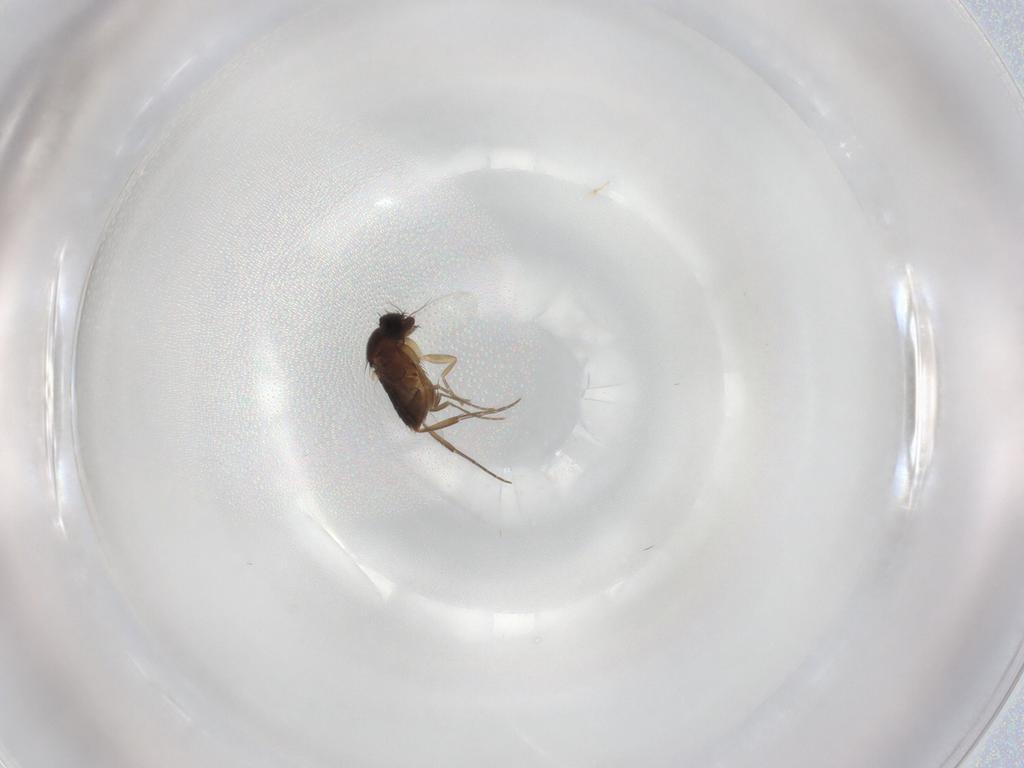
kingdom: Animalia
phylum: Arthropoda
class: Insecta
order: Diptera
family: Phoridae
